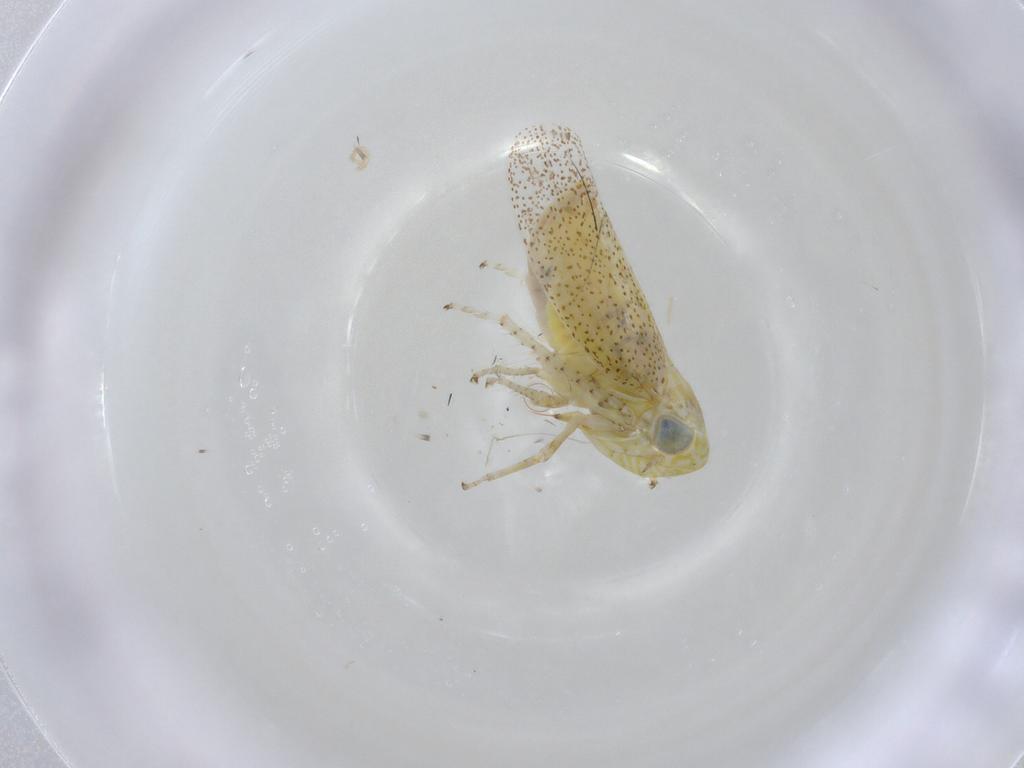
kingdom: Animalia
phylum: Arthropoda
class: Insecta
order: Hemiptera
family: Cicadellidae
